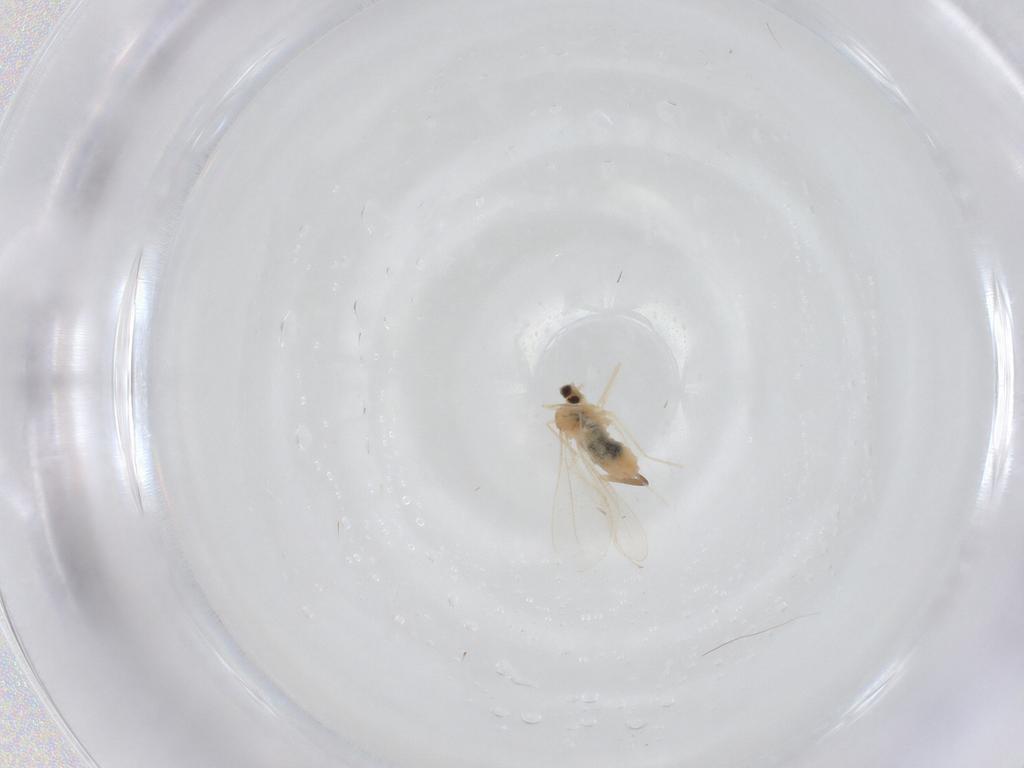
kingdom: Animalia
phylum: Arthropoda
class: Insecta
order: Diptera
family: Cecidomyiidae
